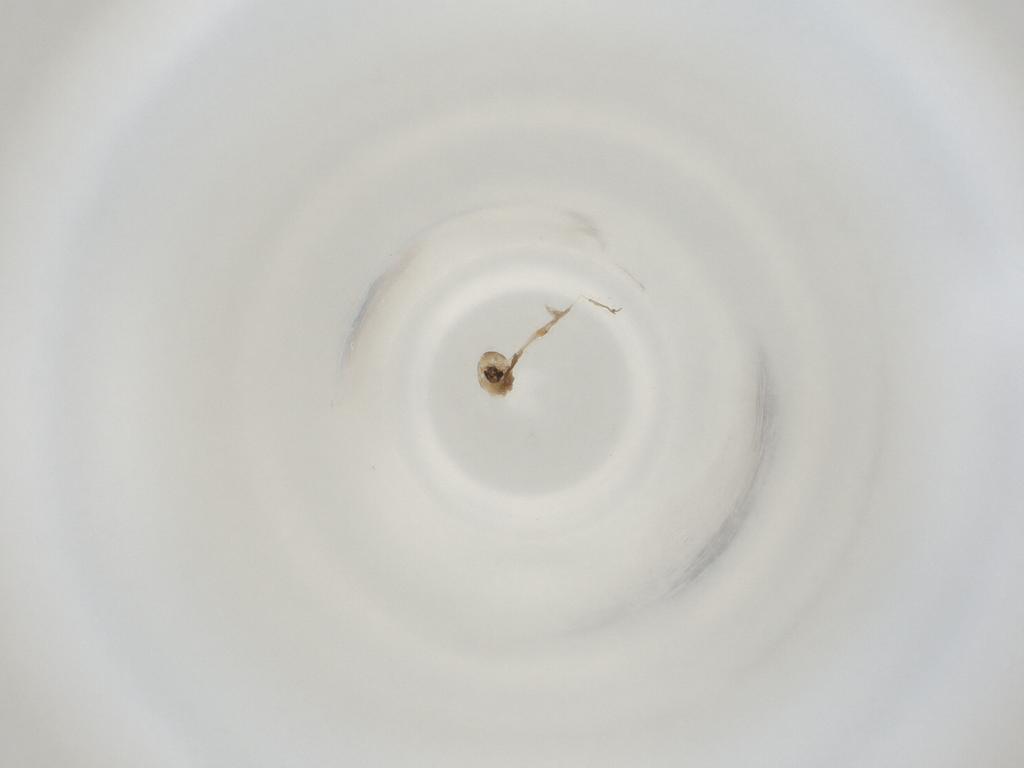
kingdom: Animalia
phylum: Arthropoda
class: Insecta
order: Diptera
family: Cecidomyiidae
